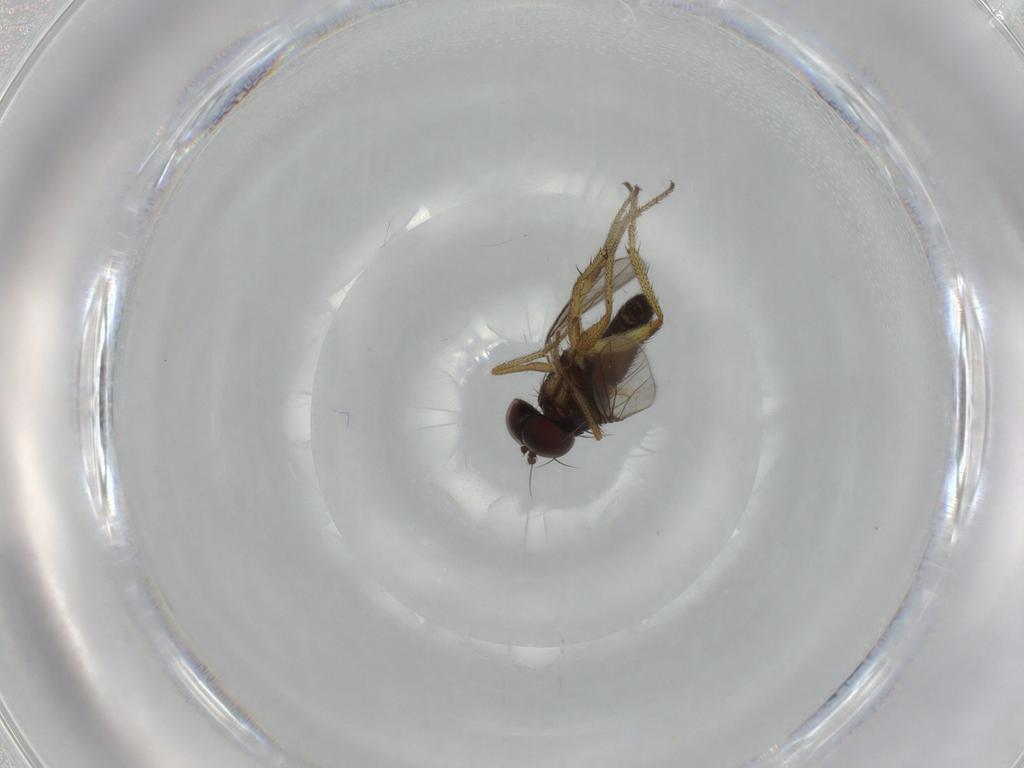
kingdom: Animalia
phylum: Arthropoda
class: Insecta
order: Diptera
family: Dolichopodidae
